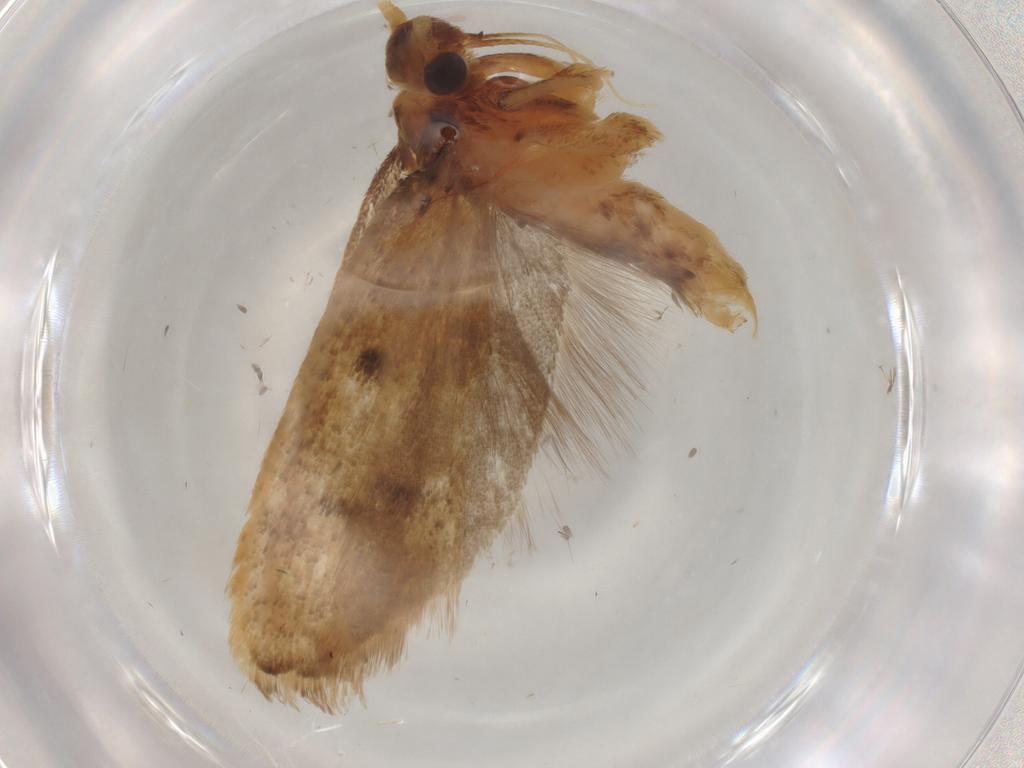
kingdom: Animalia
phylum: Arthropoda
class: Insecta
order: Lepidoptera
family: Lecithoceridae
